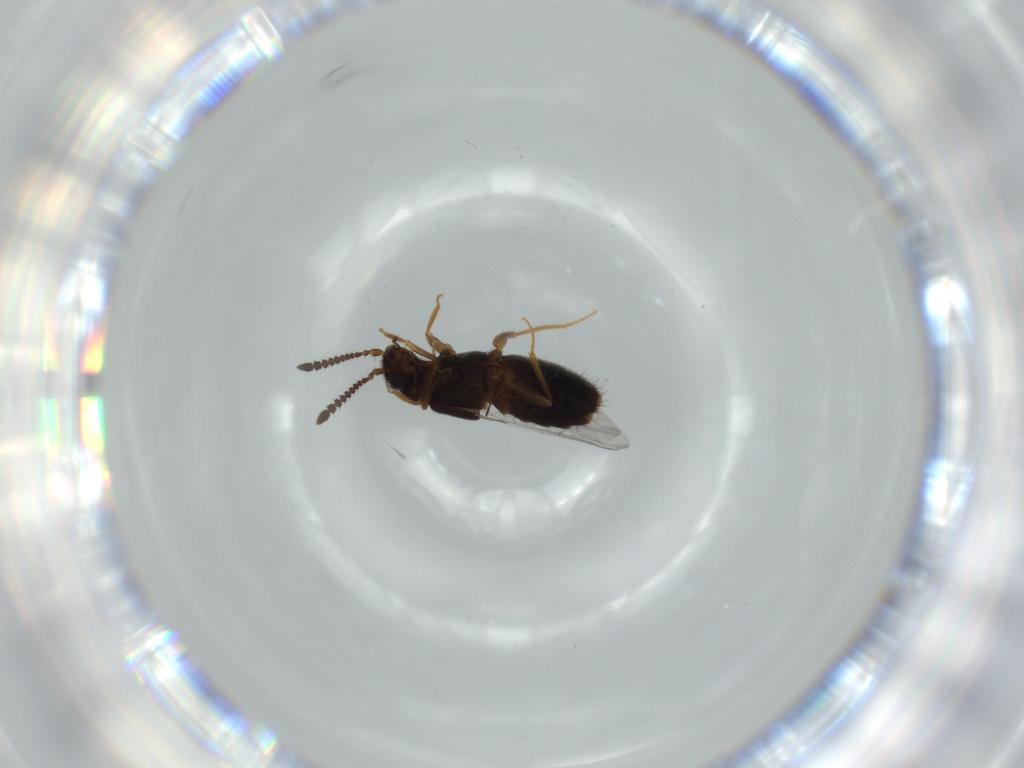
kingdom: Animalia
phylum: Arthropoda
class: Insecta
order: Coleoptera
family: Staphylinidae
